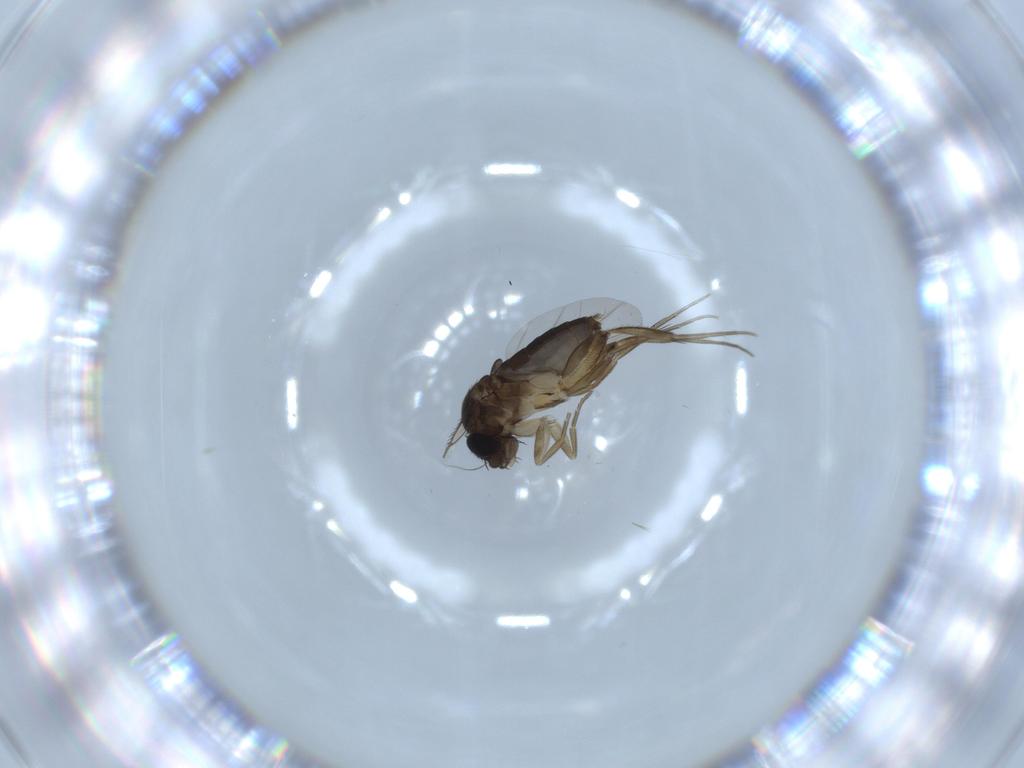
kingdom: Animalia
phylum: Arthropoda
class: Insecta
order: Diptera
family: Phoridae
